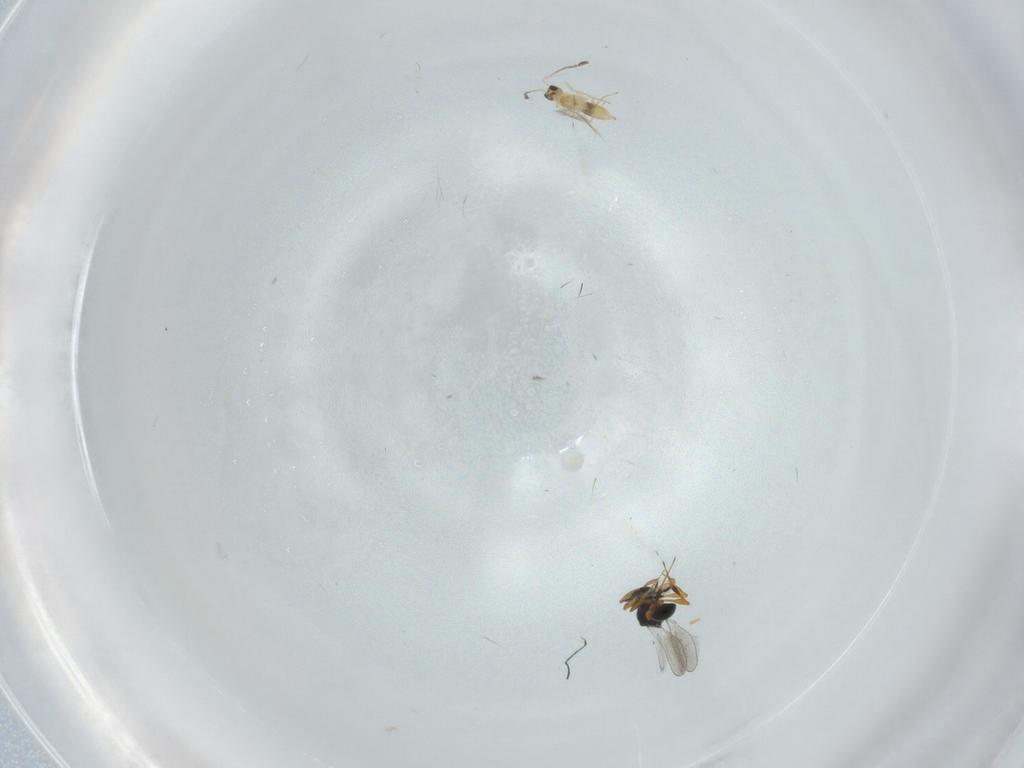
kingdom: Animalia
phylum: Arthropoda
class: Insecta
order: Hymenoptera
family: Platygastridae
